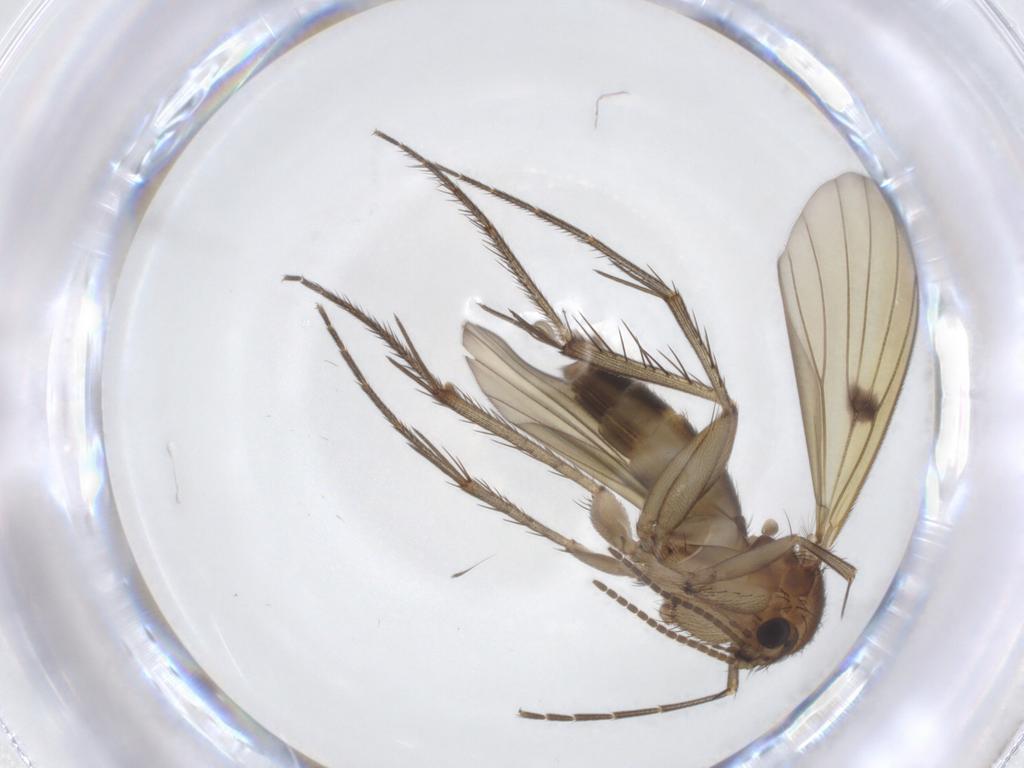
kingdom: Animalia
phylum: Arthropoda
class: Insecta
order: Diptera
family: Mycetophilidae
